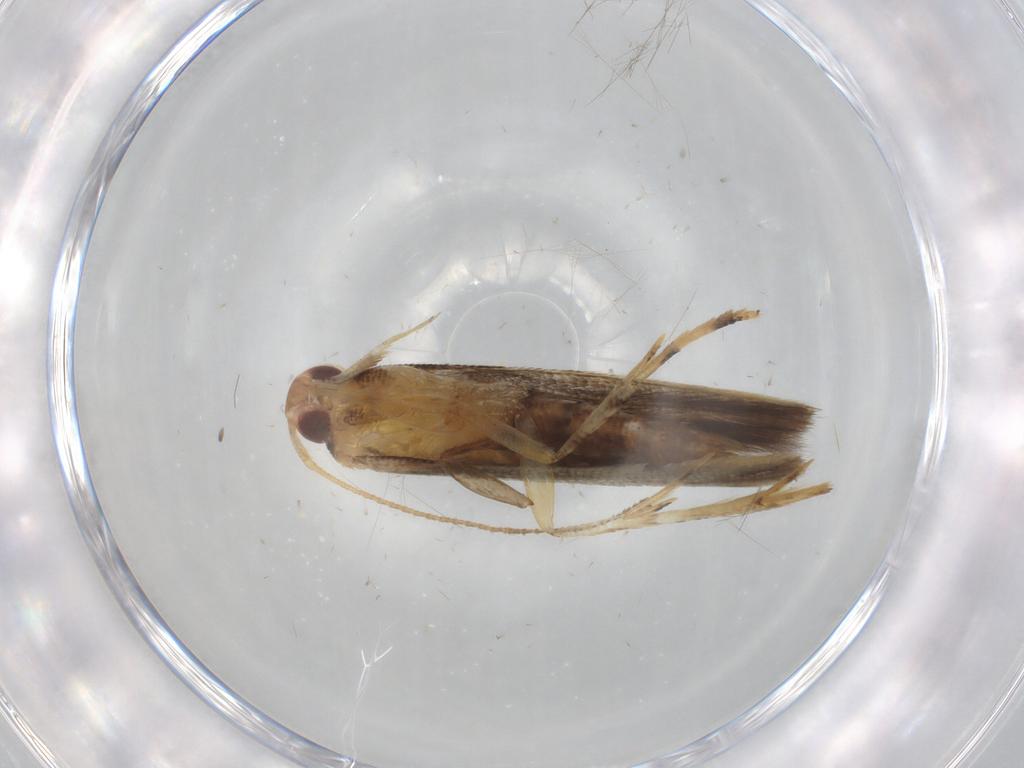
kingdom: Animalia
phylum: Arthropoda
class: Insecta
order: Lepidoptera
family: Cosmopterigidae
